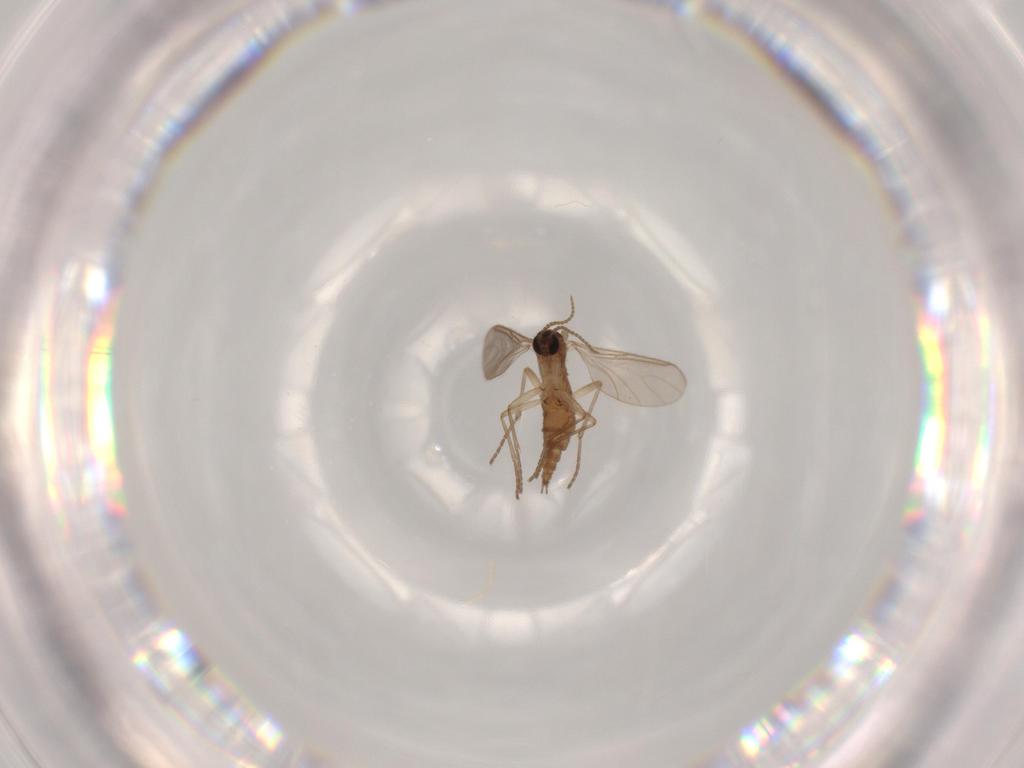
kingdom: Animalia
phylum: Arthropoda
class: Insecta
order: Diptera
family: Sciaridae
